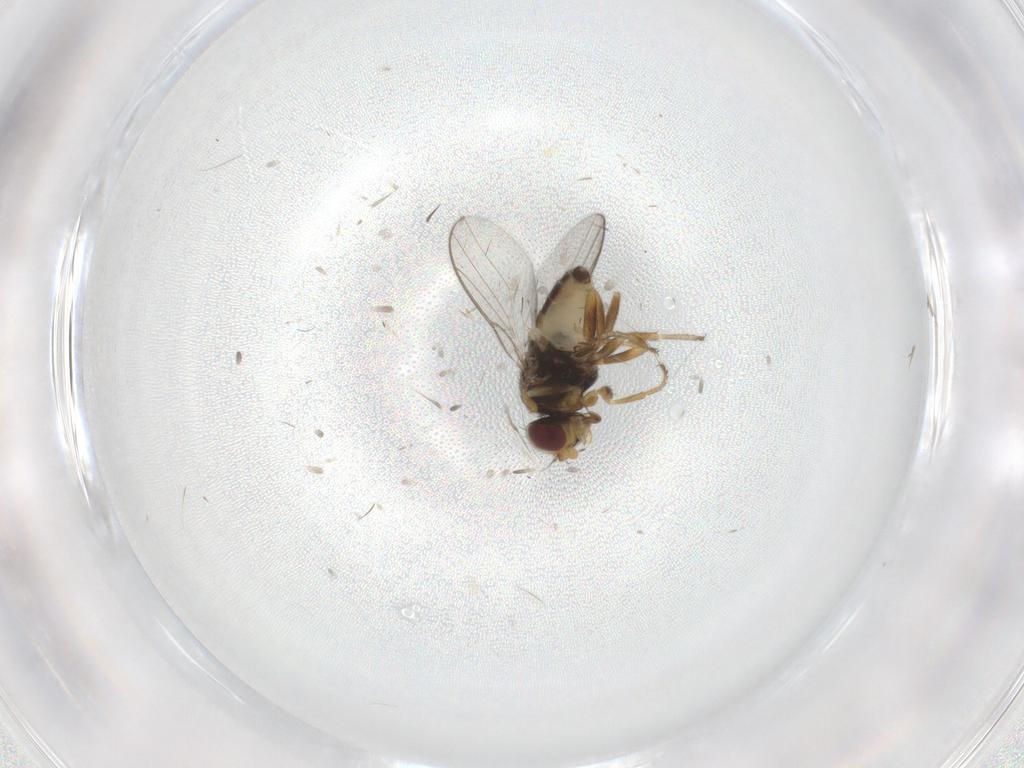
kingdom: Animalia
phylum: Arthropoda
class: Insecta
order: Diptera
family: Chloropidae
